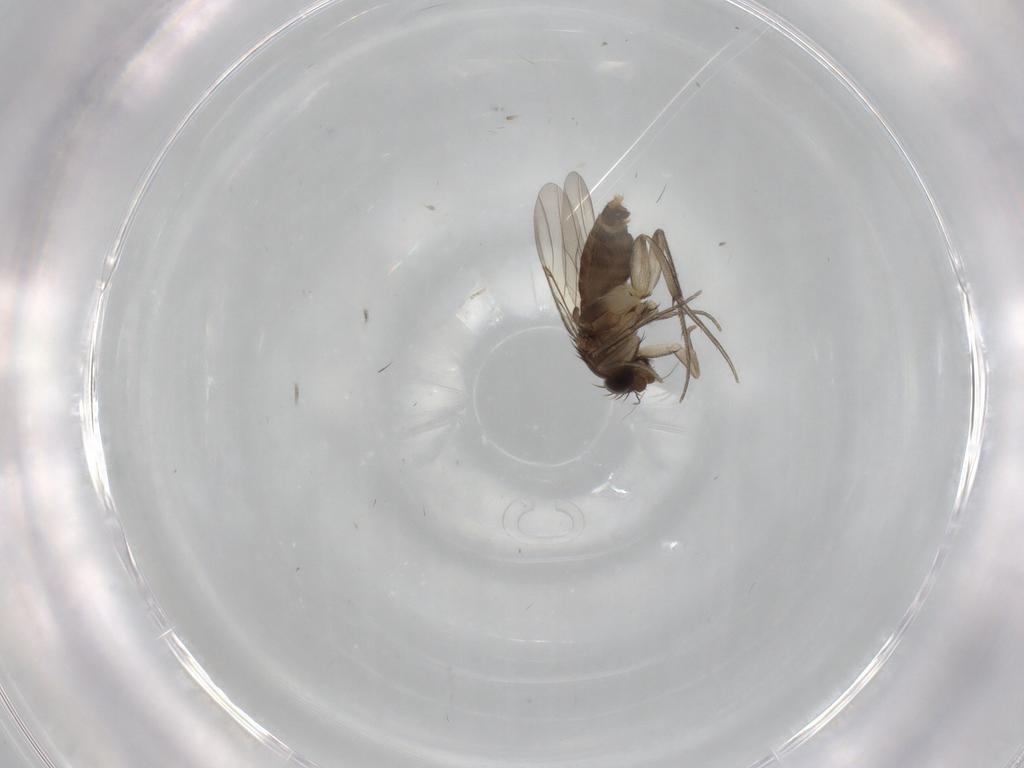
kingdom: Animalia
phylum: Arthropoda
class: Insecta
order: Diptera
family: Phoridae
